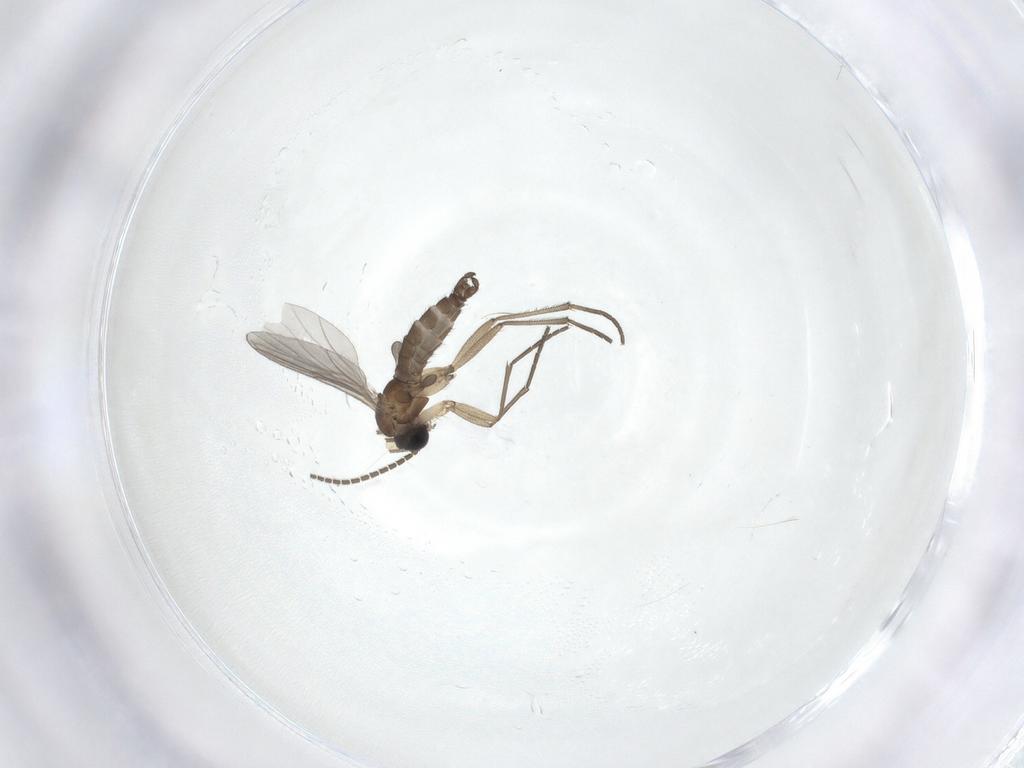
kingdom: Animalia
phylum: Arthropoda
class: Insecta
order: Diptera
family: Sciaridae
